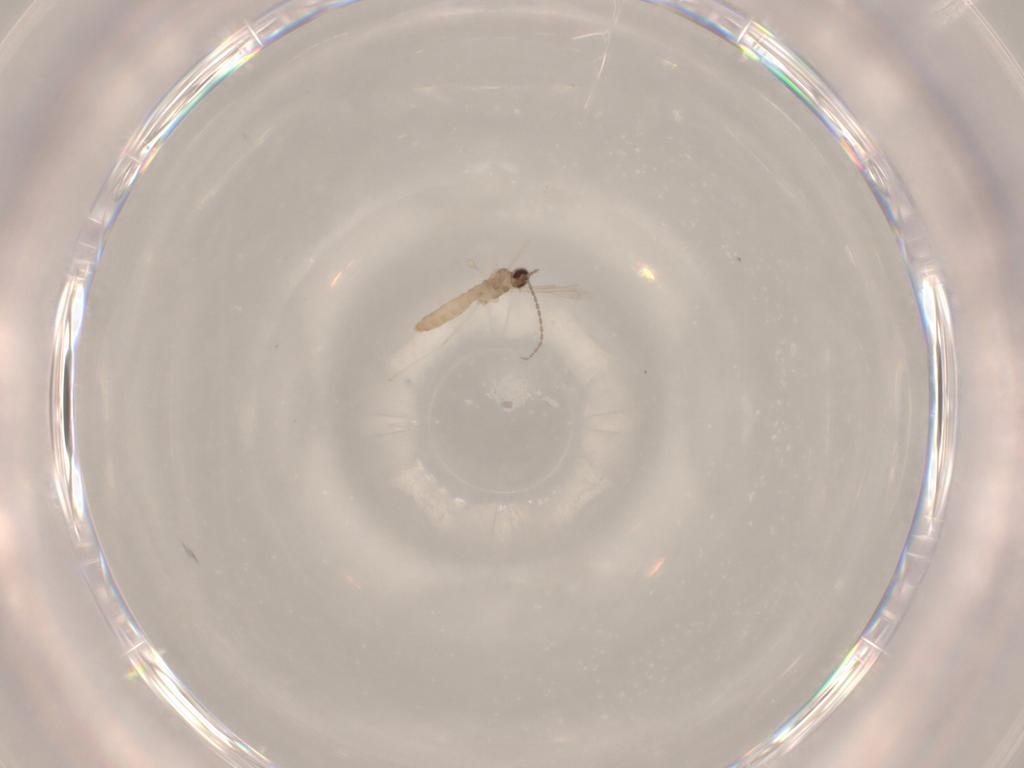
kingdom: Animalia
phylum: Arthropoda
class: Insecta
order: Diptera
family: Cecidomyiidae
